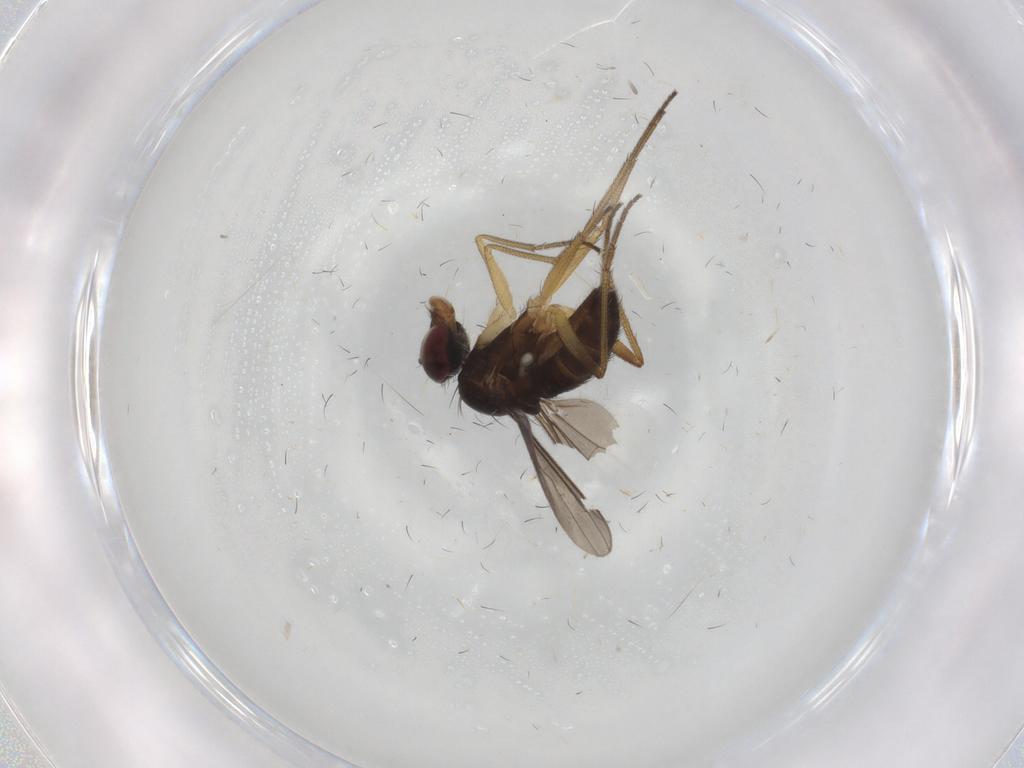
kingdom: Animalia
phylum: Arthropoda
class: Insecta
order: Diptera
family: Dolichopodidae
